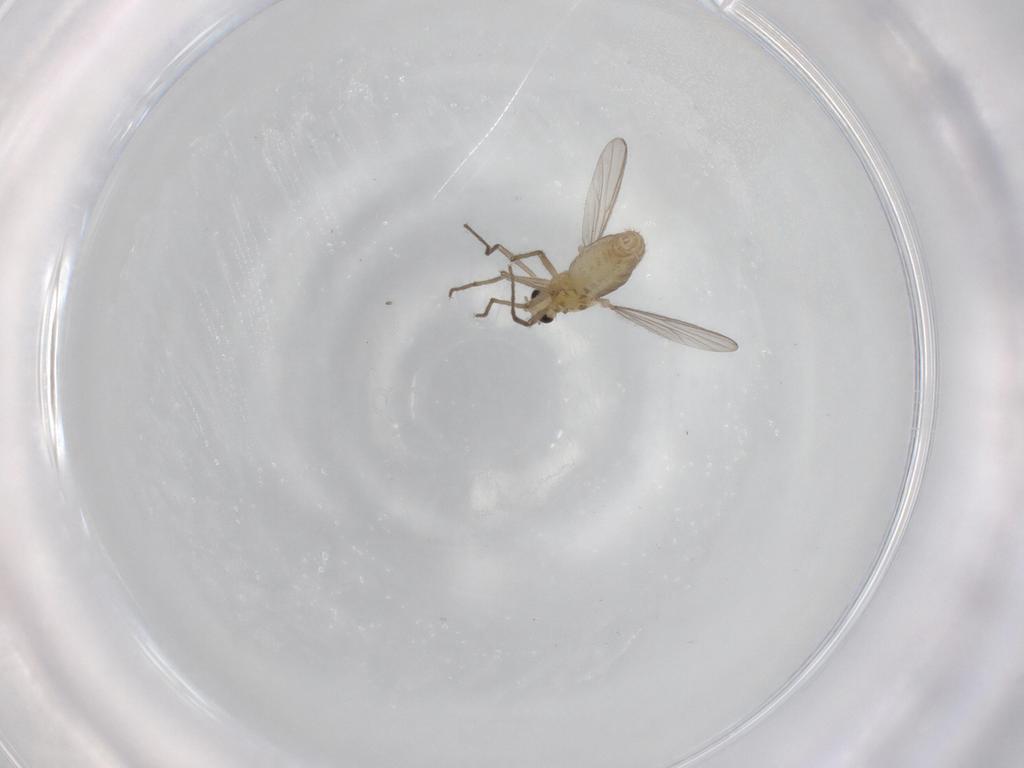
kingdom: Animalia
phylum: Arthropoda
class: Insecta
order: Diptera
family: Chironomidae
